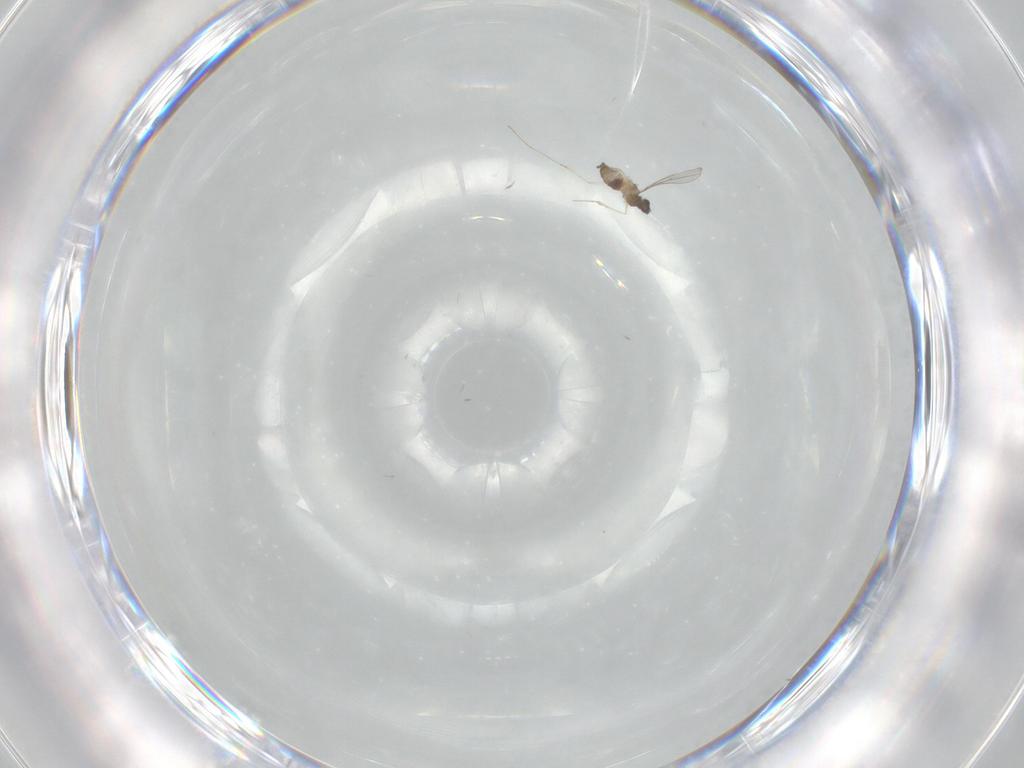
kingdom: Animalia
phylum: Arthropoda
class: Insecta
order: Diptera
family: Cecidomyiidae
